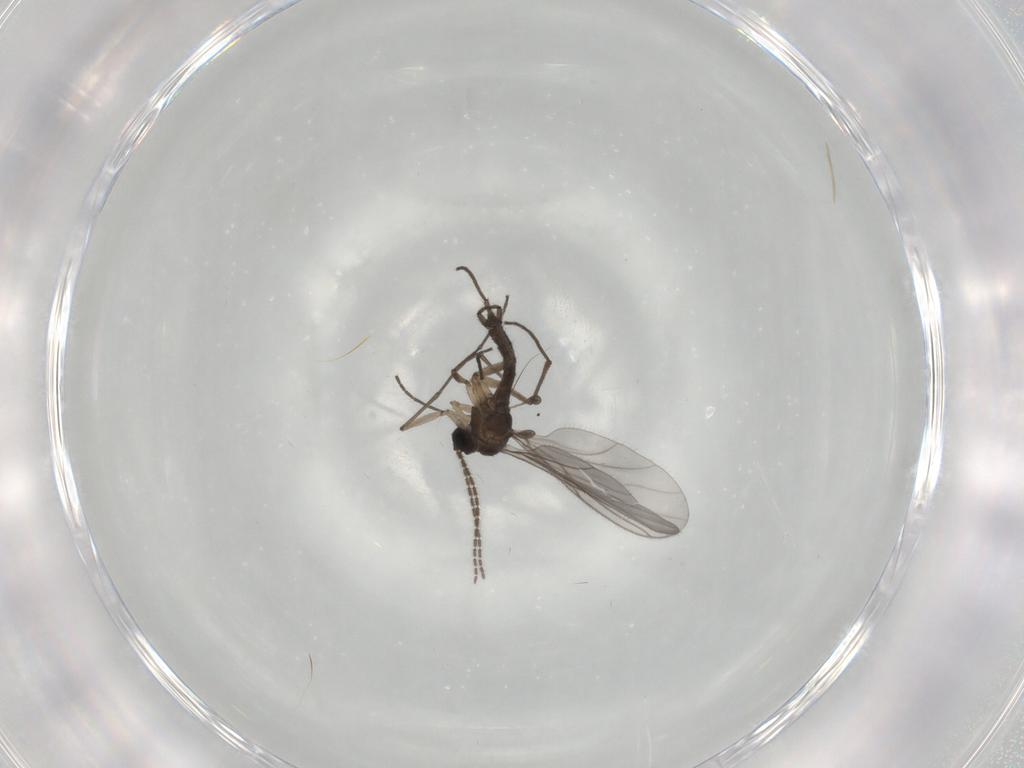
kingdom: Animalia
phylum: Arthropoda
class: Insecta
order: Diptera
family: Sciaridae
